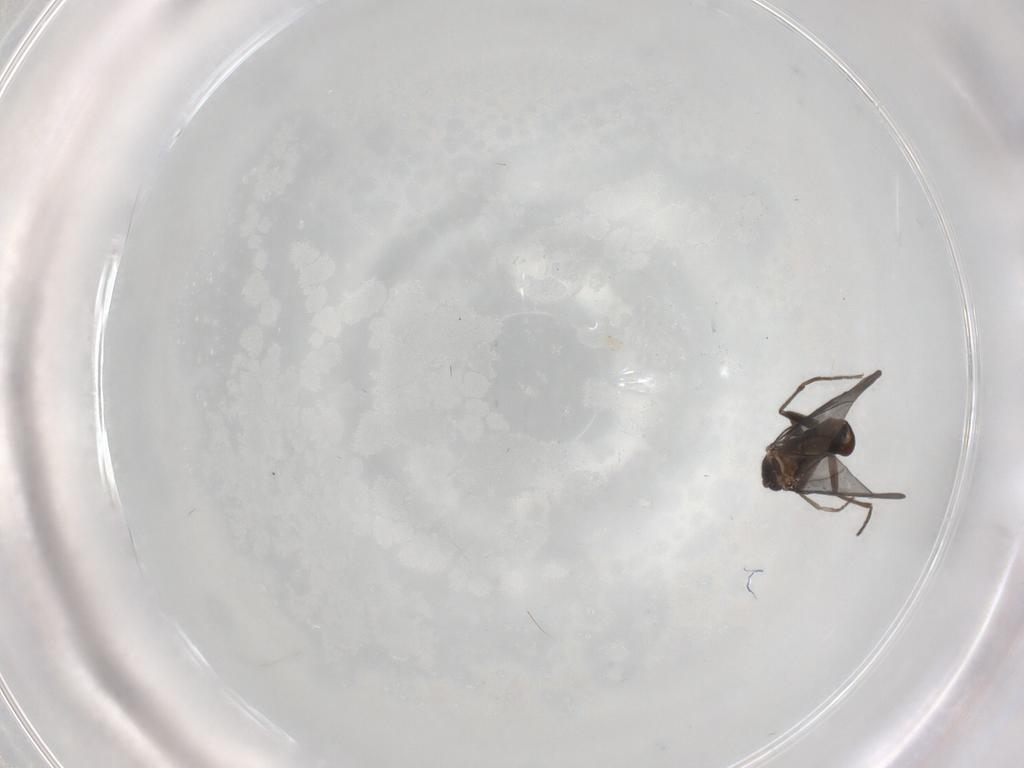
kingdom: Animalia
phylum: Arthropoda
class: Insecta
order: Diptera
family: Phoridae
